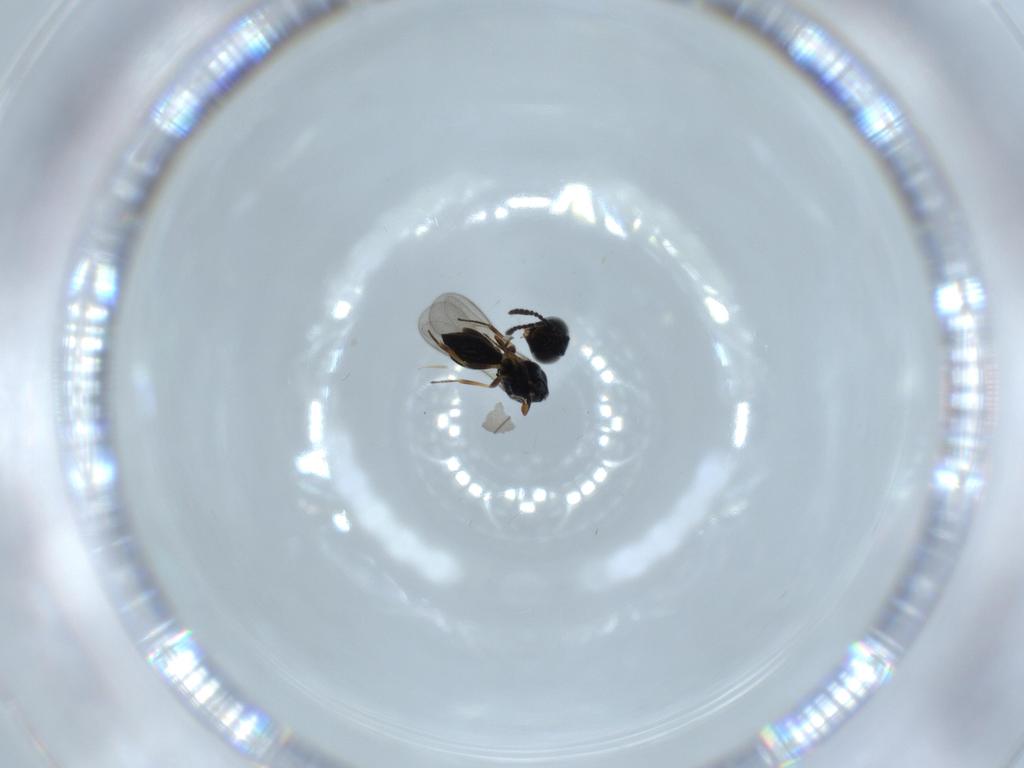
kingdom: Animalia
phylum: Arthropoda
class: Insecta
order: Hymenoptera
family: Scelionidae
